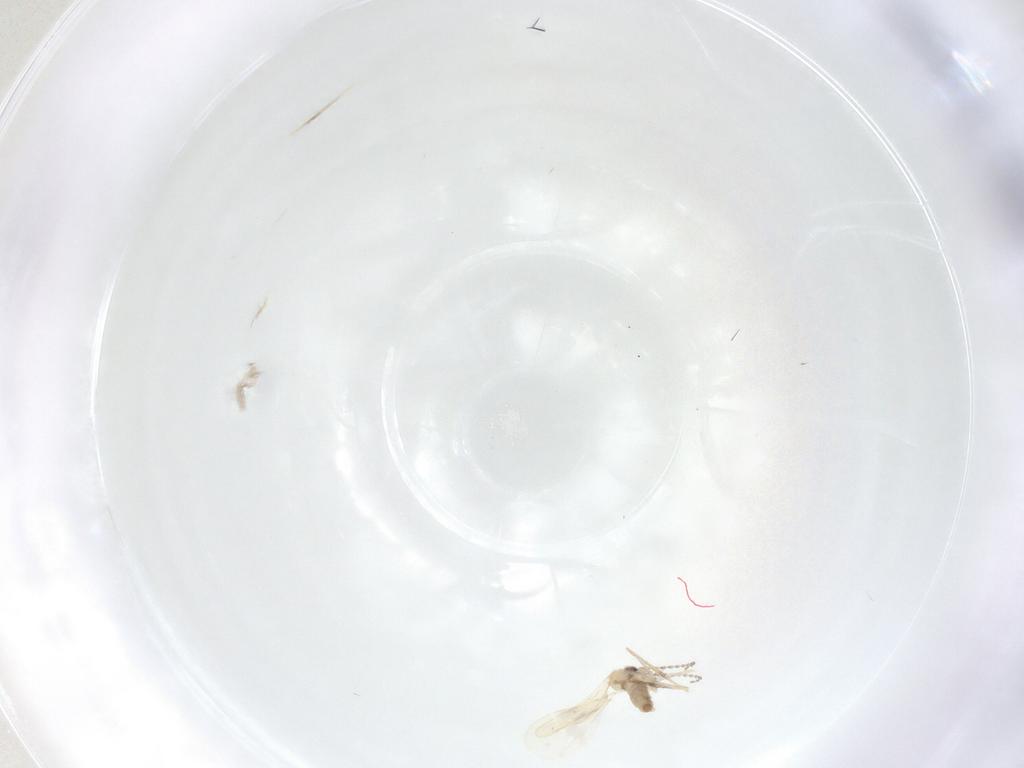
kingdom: Animalia
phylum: Arthropoda
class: Insecta
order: Diptera
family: Cecidomyiidae
